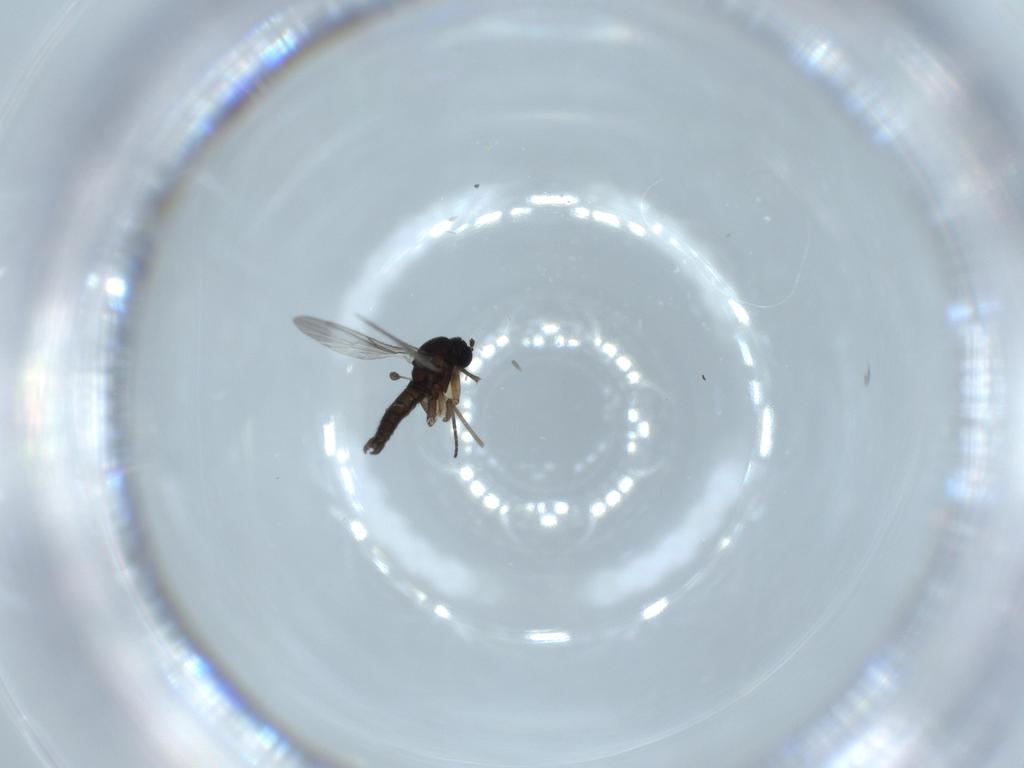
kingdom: Animalia
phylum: Arthropoda
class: Insecta
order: Diptera
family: Sciaridae
